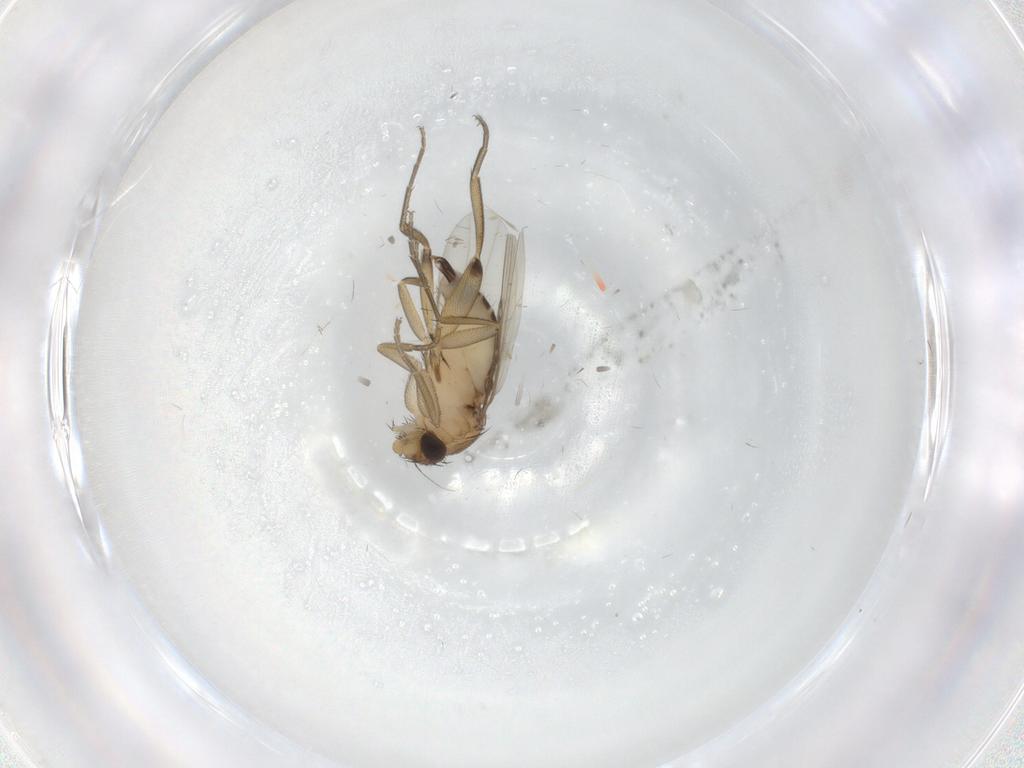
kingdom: Animalia
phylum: Arthropoda
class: Insecta
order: Diptera
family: Phoridae
